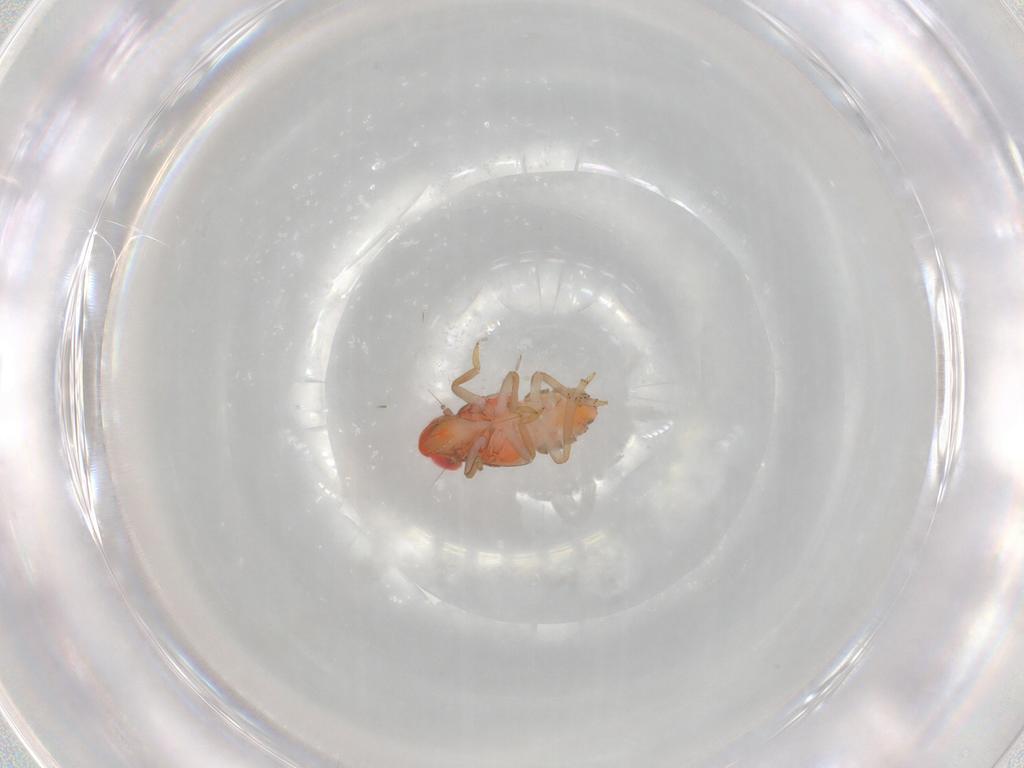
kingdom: Animalia
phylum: Arthropoda
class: Insecta
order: Hemiptera
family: Issidae
